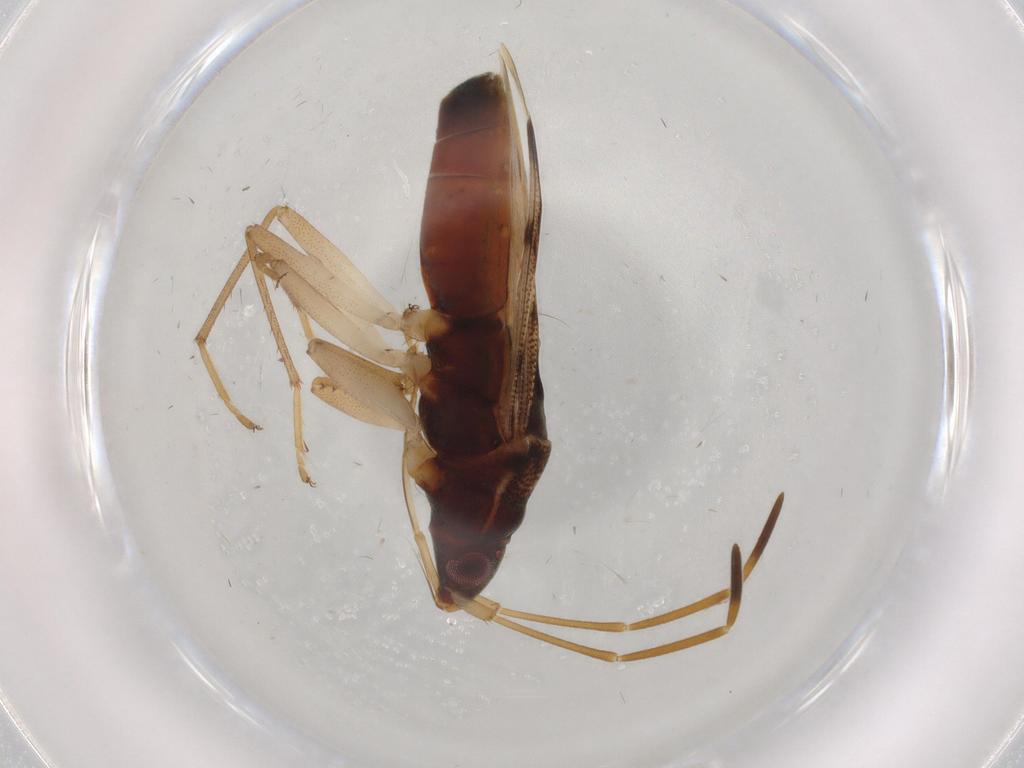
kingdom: Animalia
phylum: Arthropoda
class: Insecta
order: Hemiptera
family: Rhyparochromidae
